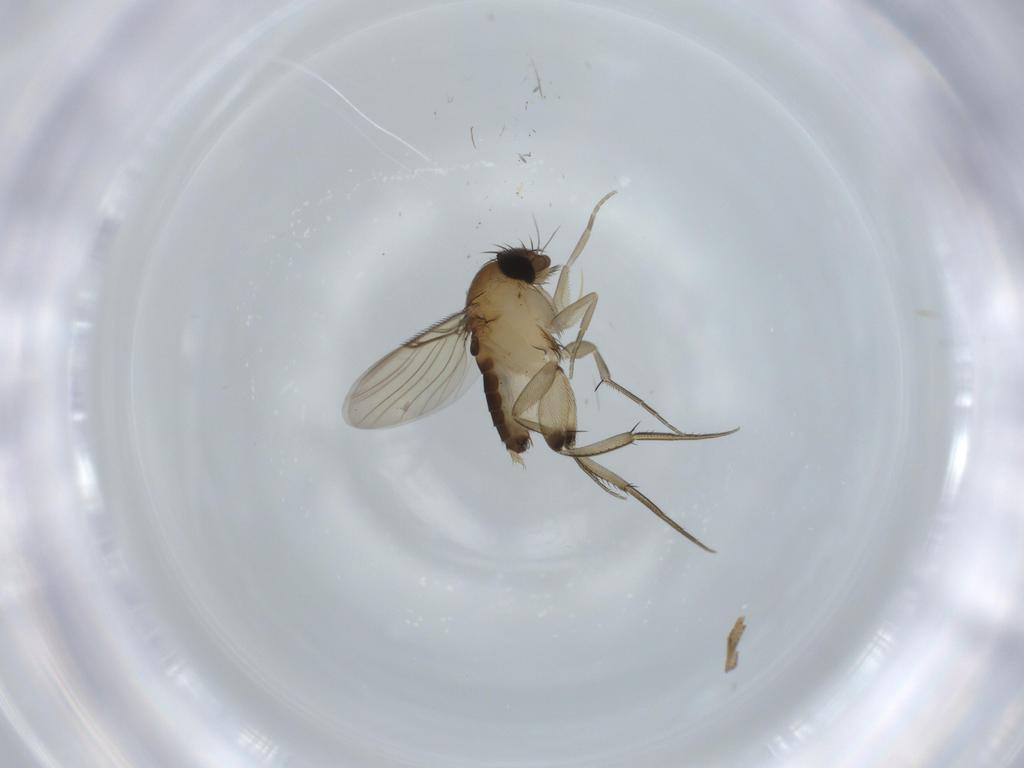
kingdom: Animalia
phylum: Arthropoda
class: Insecta
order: Diptera
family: Phoridae
